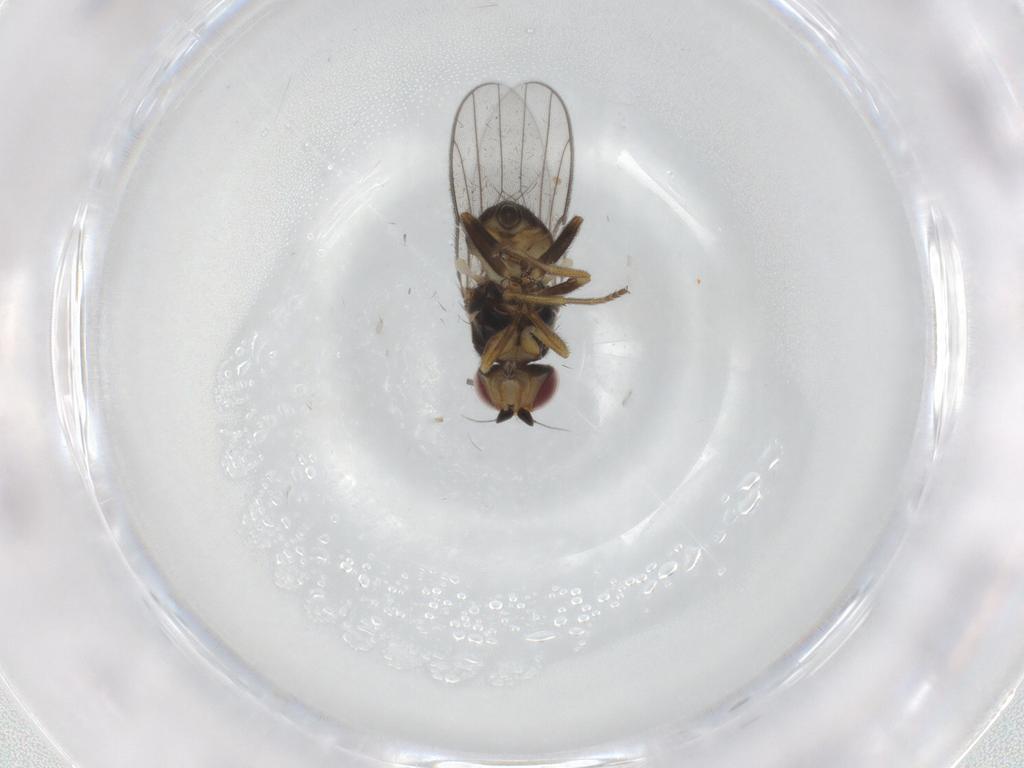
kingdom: Animalia
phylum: Arthropoda
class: Insecta
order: Diptera
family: Chloropidae
